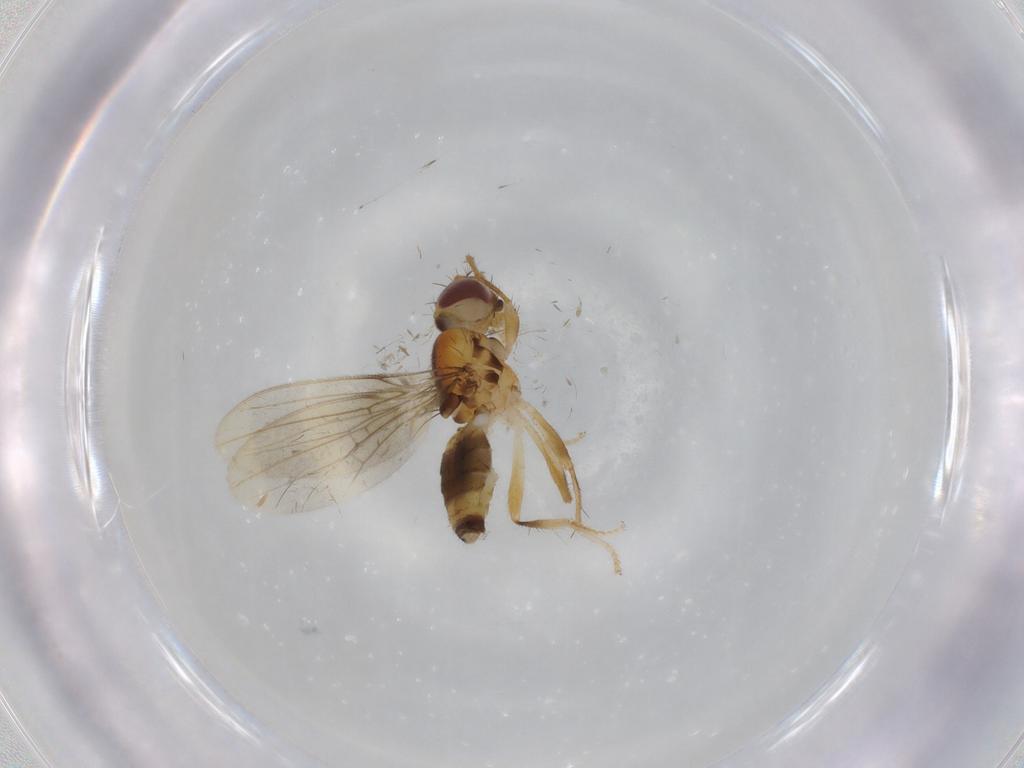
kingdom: Animalia
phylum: Arthropoda
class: Insecta
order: Diptera
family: Periscelididae
